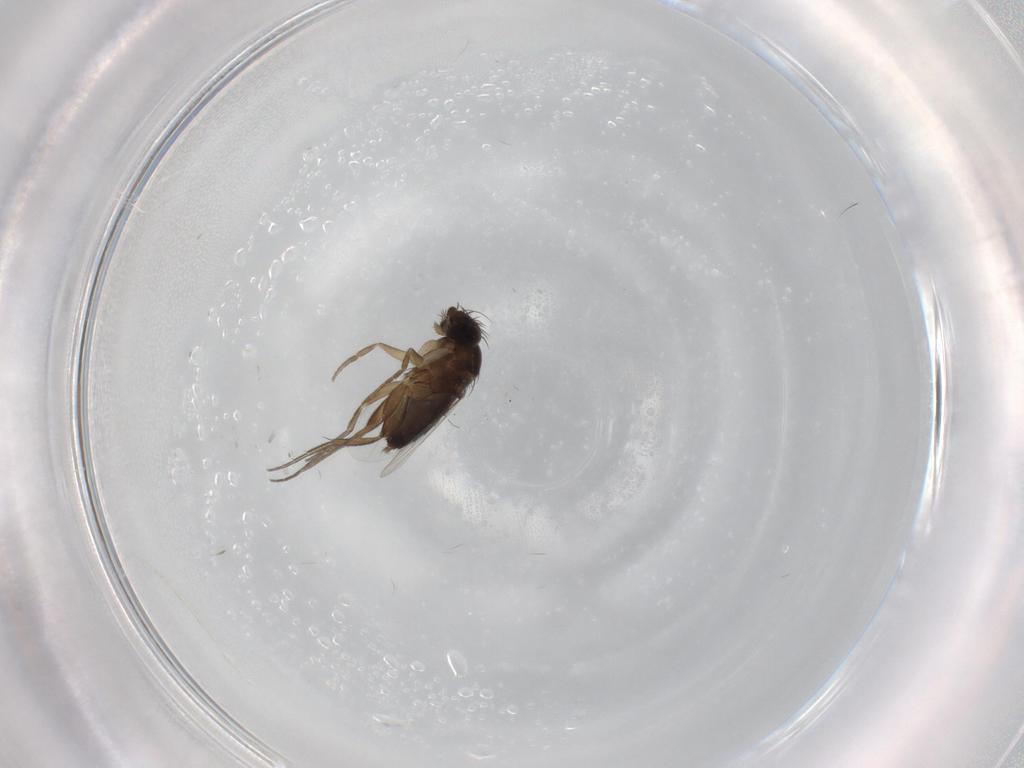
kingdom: Animalia
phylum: Arthropoda
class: Insecta
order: Diptera
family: Phoridae
